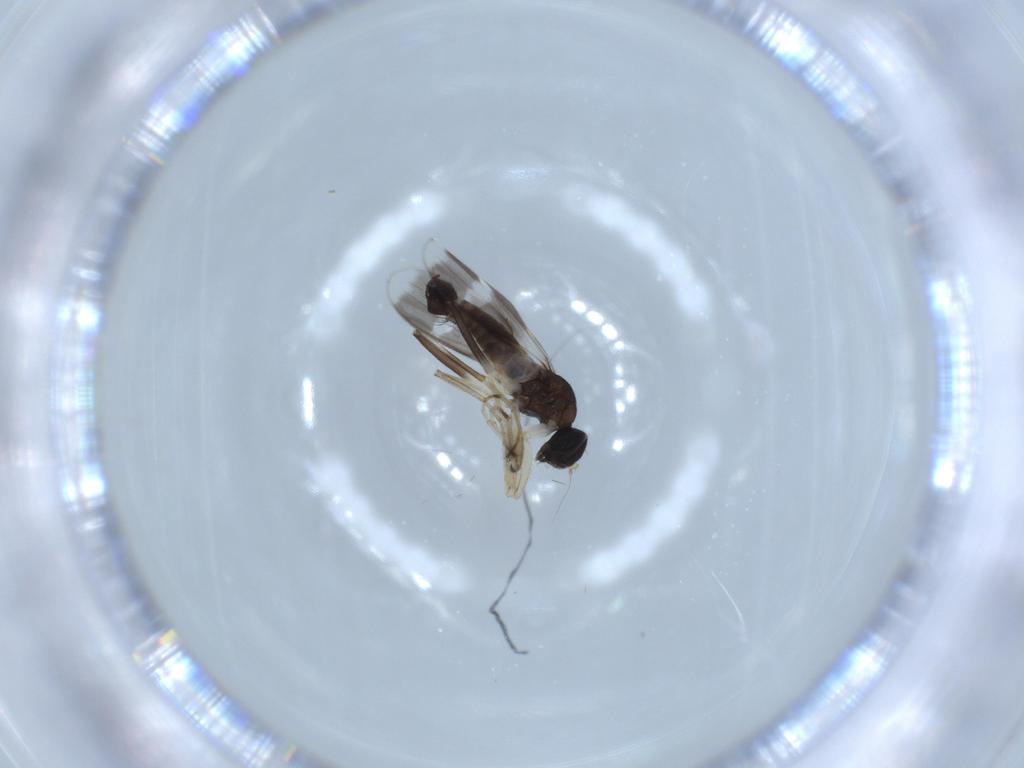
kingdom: Animalia
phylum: Arthropoda
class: Insecta
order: Diptera
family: Hybotidae
